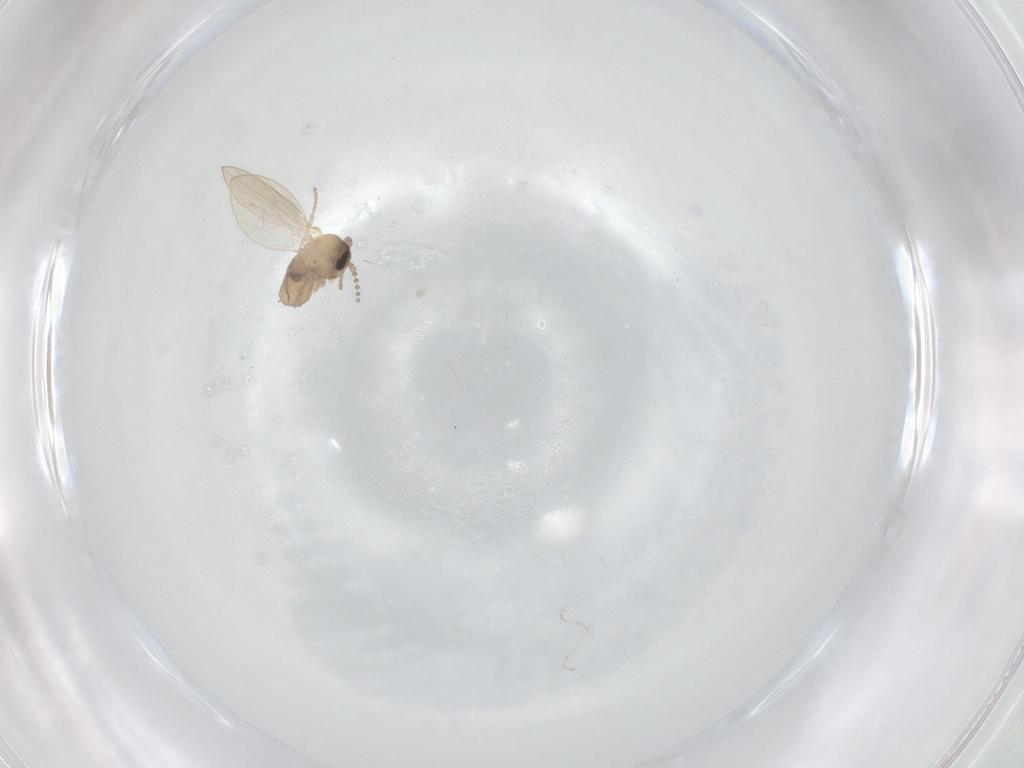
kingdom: Animalia
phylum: Arthropoda
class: Insecta
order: Diptera
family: Psychodidae
